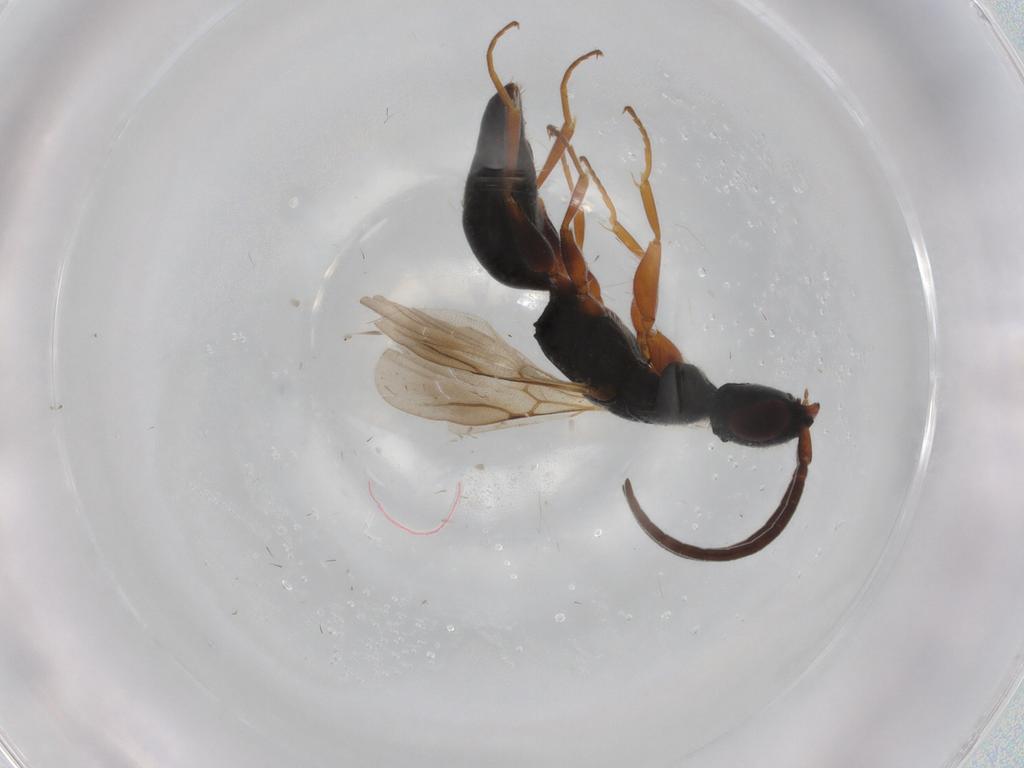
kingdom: Animalia
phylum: Arthropoda
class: Insecta
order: Hymenoptera
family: Bethylidae
